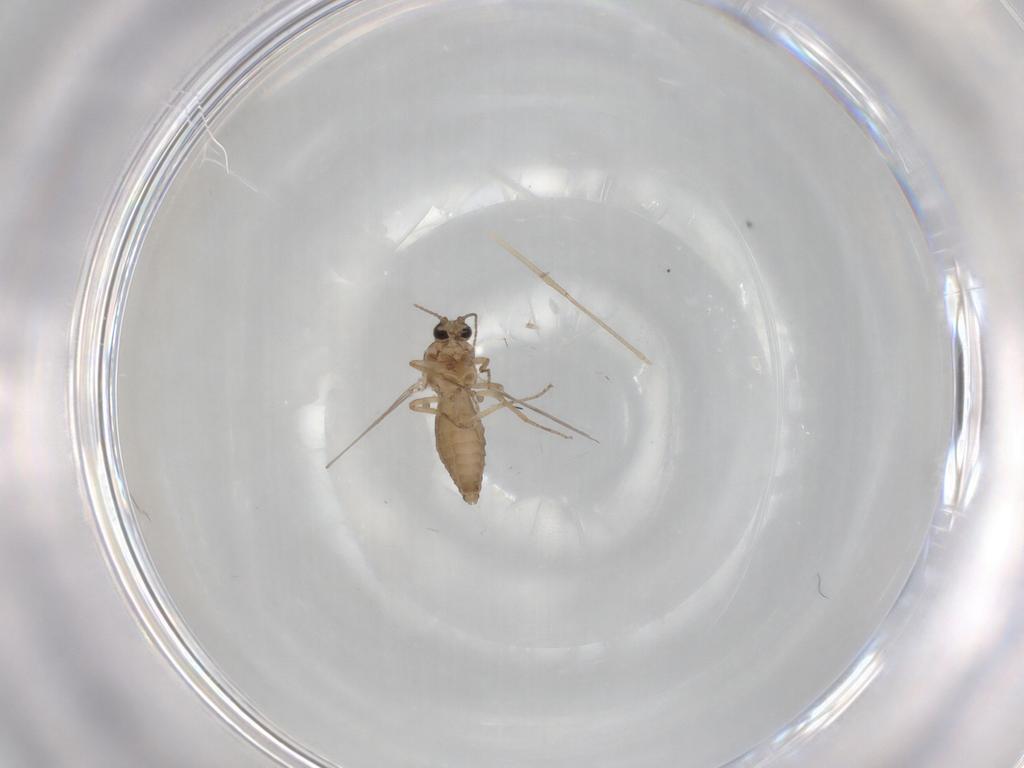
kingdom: Animalia
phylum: Arthropoda
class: Insecta
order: Diptera
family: Ceratopogonidae
